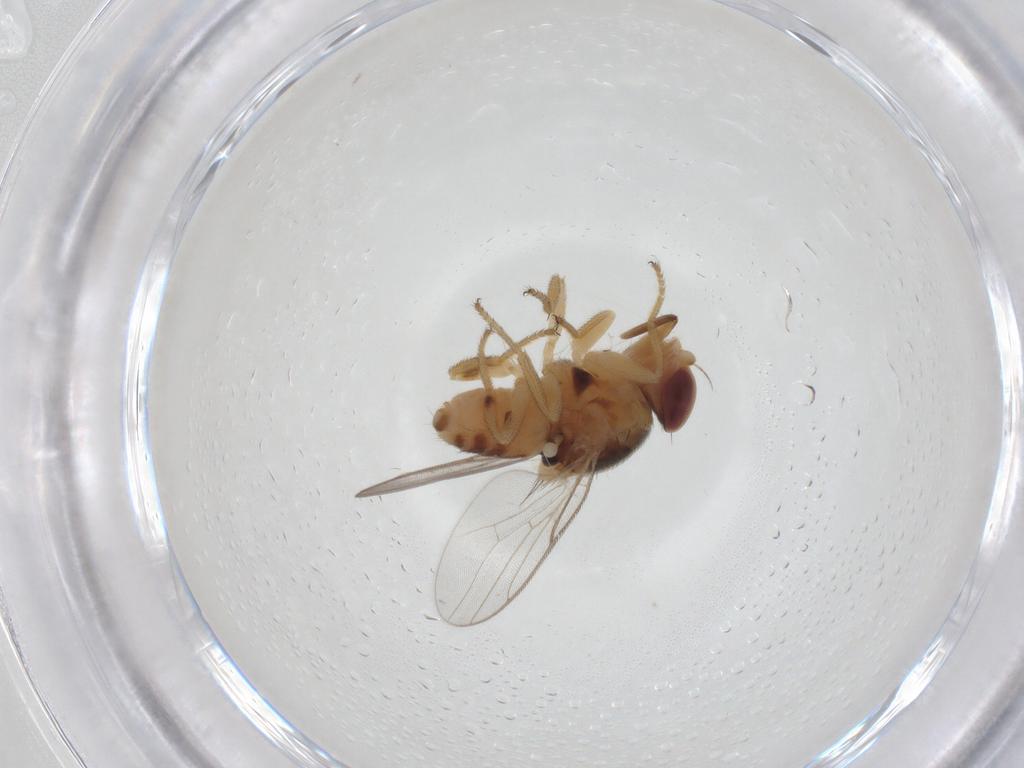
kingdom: Animalia
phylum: Arthropoda
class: Insecta
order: Diptera
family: Chloropidae
